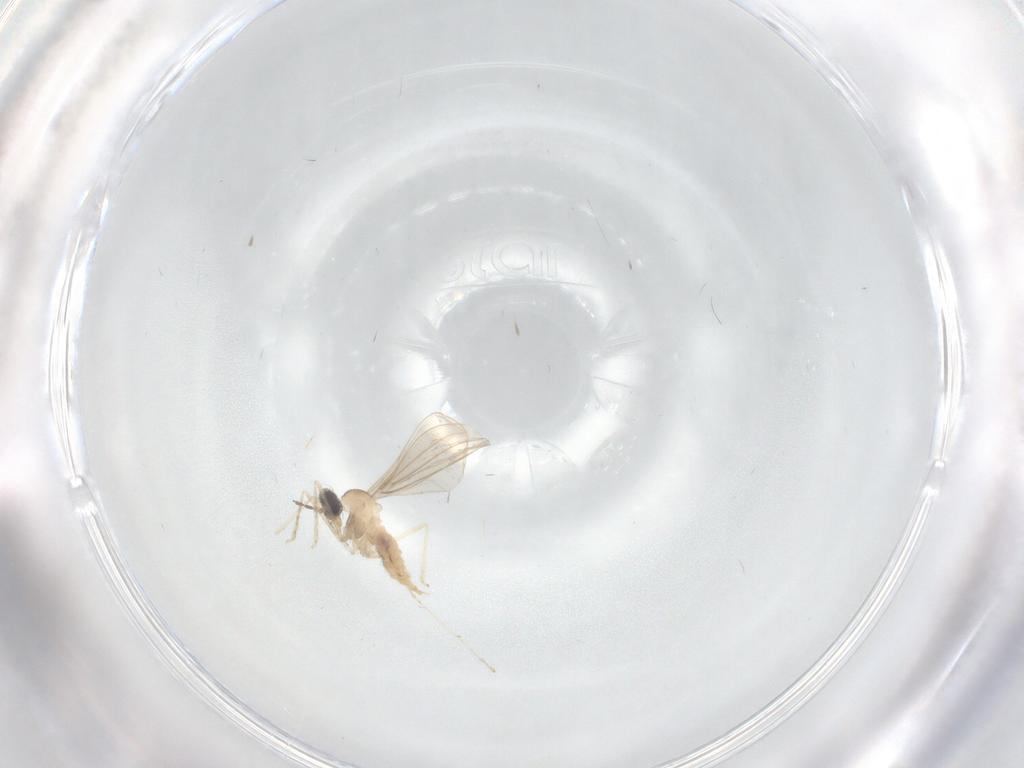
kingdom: Animalia
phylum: Arthropoda
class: Insecta
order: Diptera
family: Cecidomyiidae
